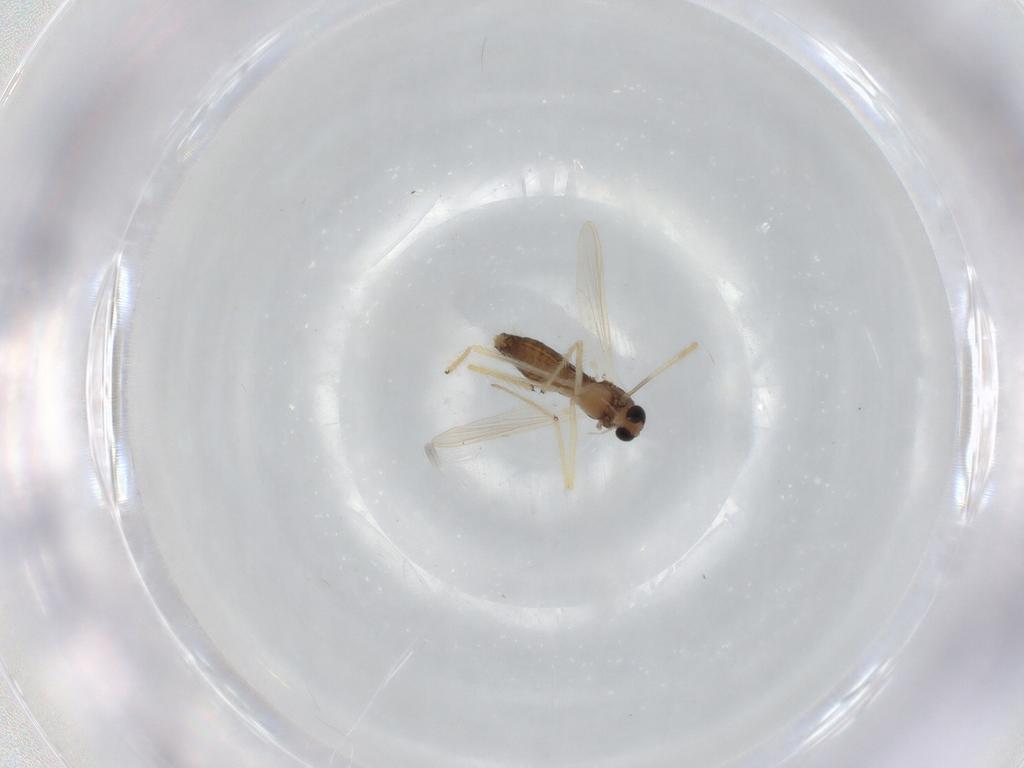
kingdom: Animalia
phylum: Arthropoda
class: Insecta
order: Diptera
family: Chironomidae
